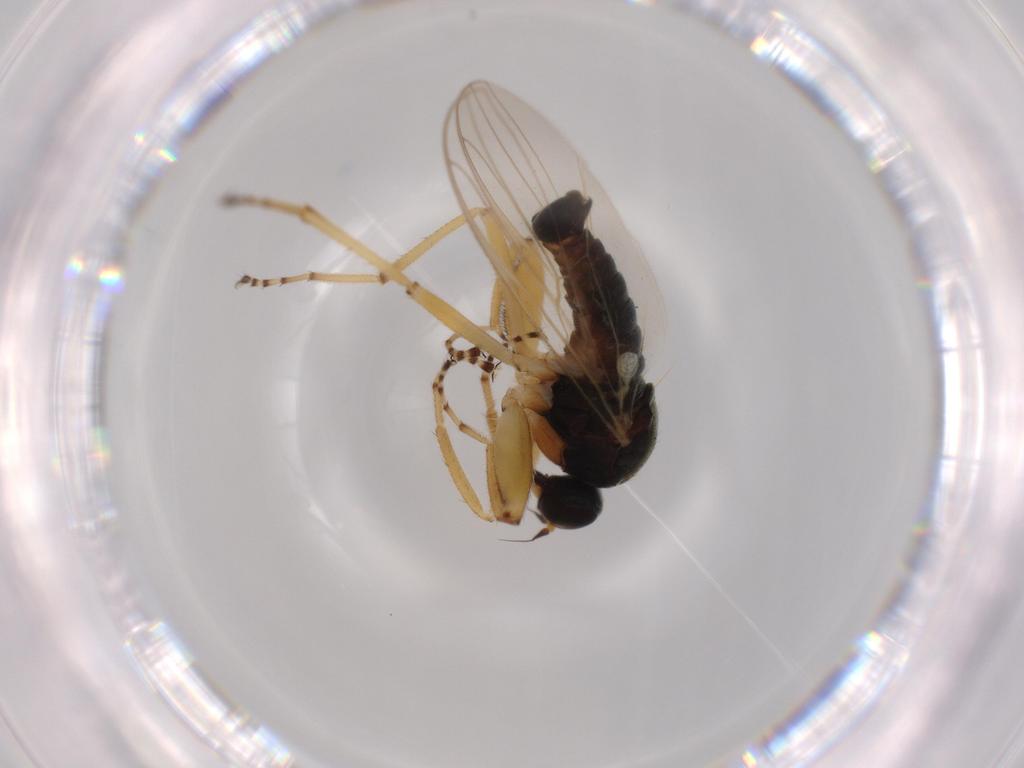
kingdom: Animalia
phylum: Arthropoda
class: Insecta
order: Diptera
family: Hybotidae
